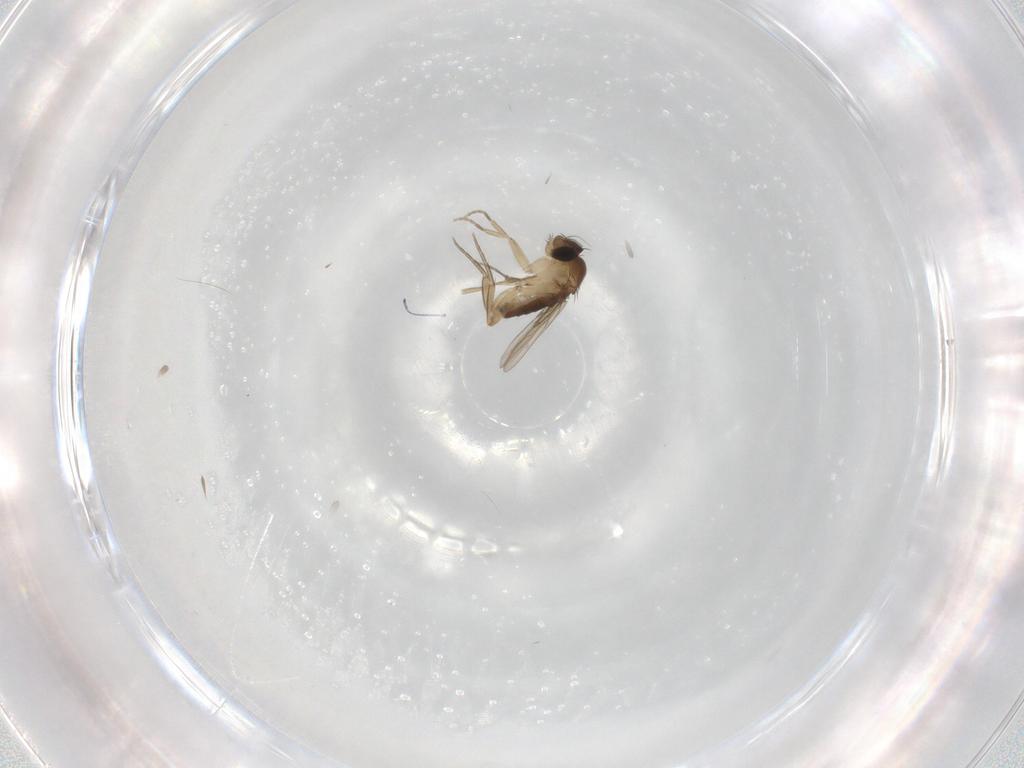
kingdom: Animalia
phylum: Arthropoda
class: Insecta
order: Diptera
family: Phoridae
